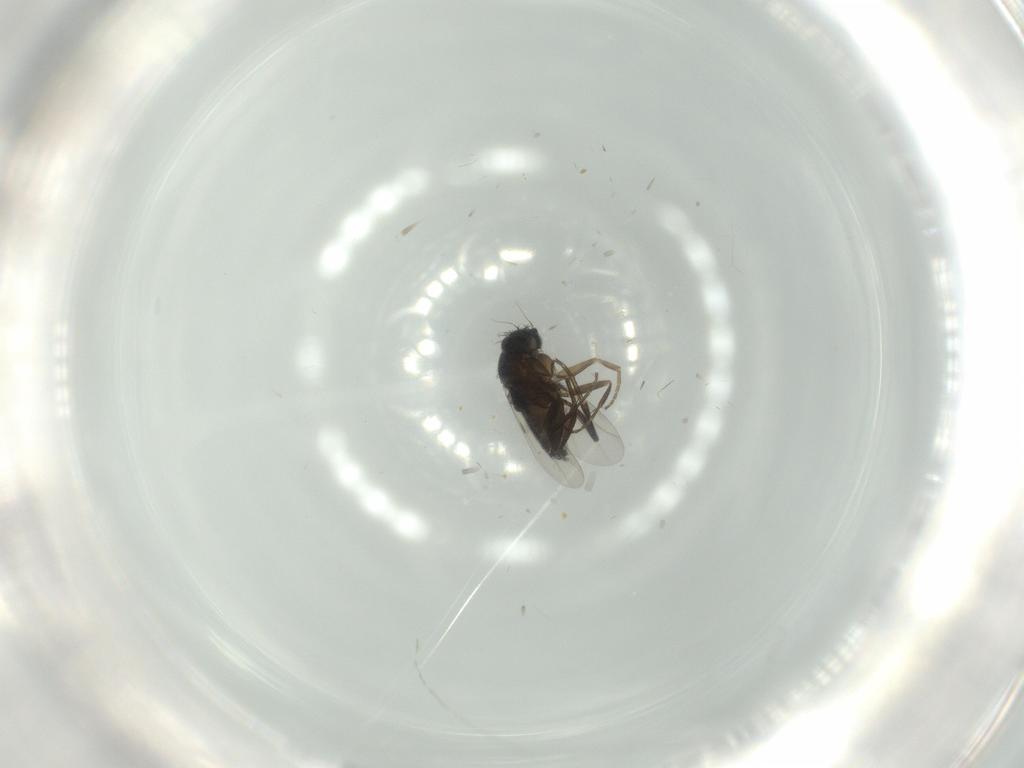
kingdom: Animalia
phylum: Arthropoda
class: Insecta
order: Diptera
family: Phoridae
